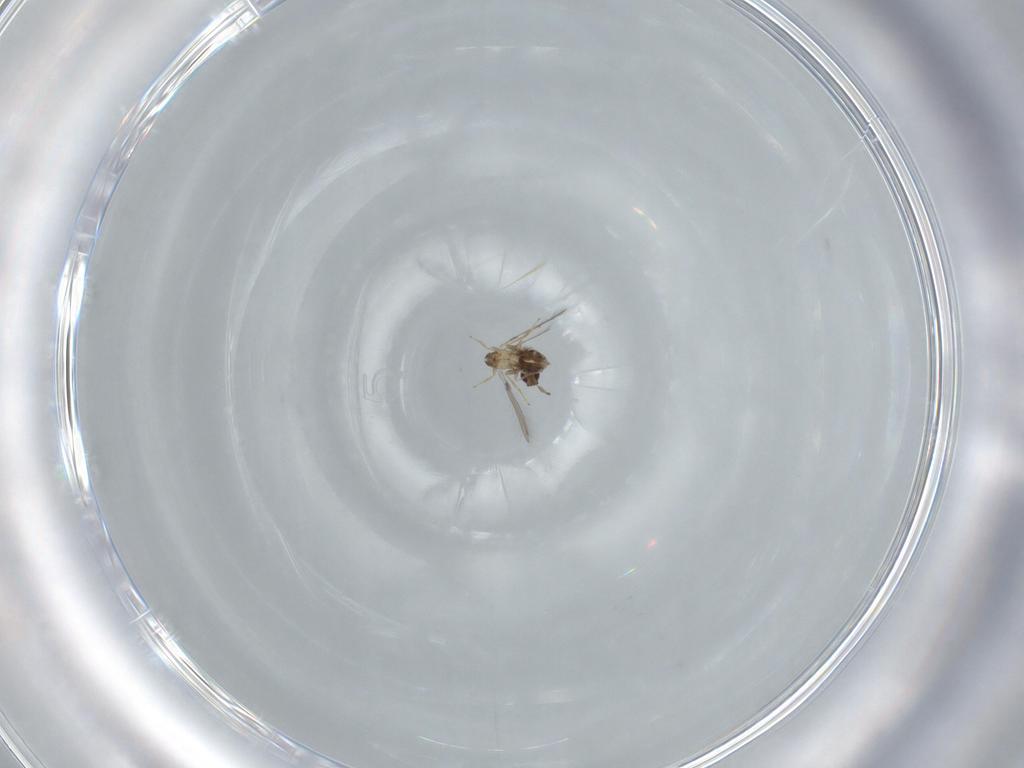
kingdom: Animalia
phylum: Arthropoda
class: Insecta
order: Hymenoptera
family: Mymaridae
